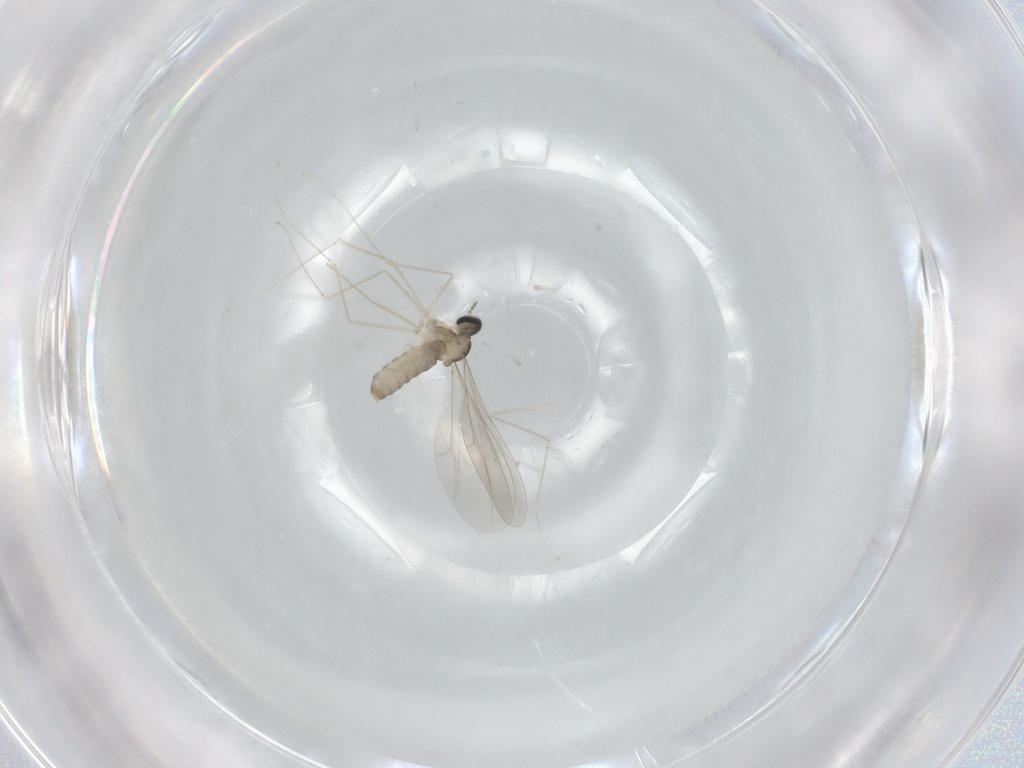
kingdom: Animalia
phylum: Arthropoda
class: Insecta
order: Diptera
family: Cecidomyiidae
